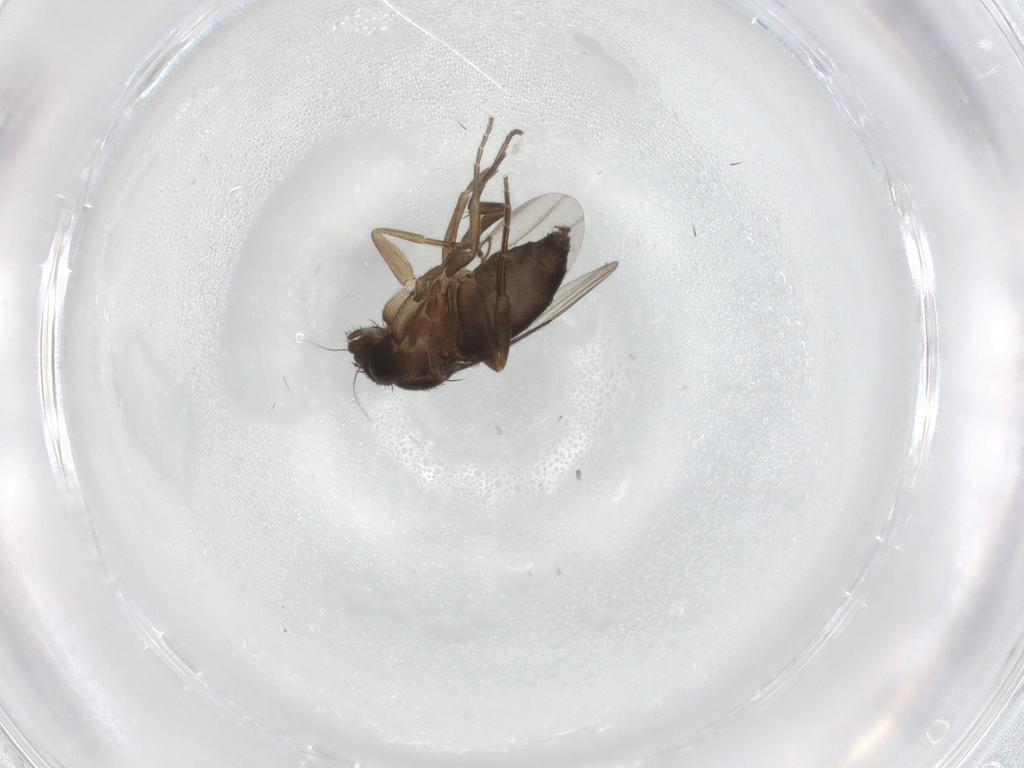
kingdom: Animalia
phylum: Arthropoda
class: Insecta
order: Diptera
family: Phoridae
